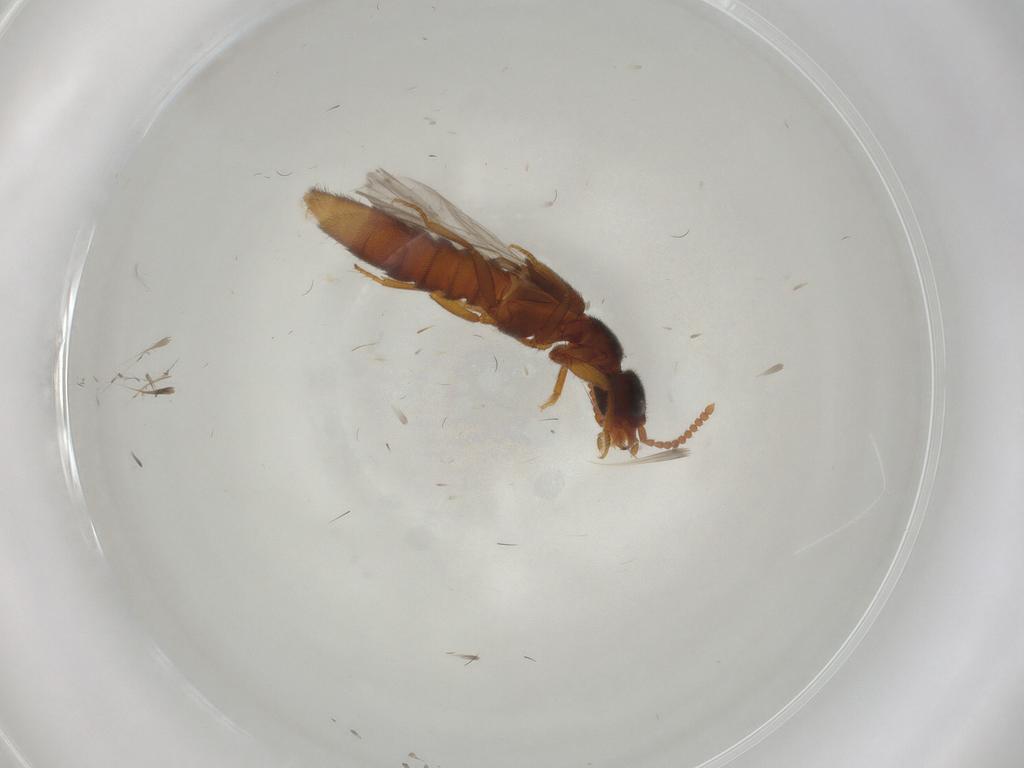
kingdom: Animalia
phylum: Arthropoda
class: Insecta
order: Coleoptera
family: Staphylinidae
